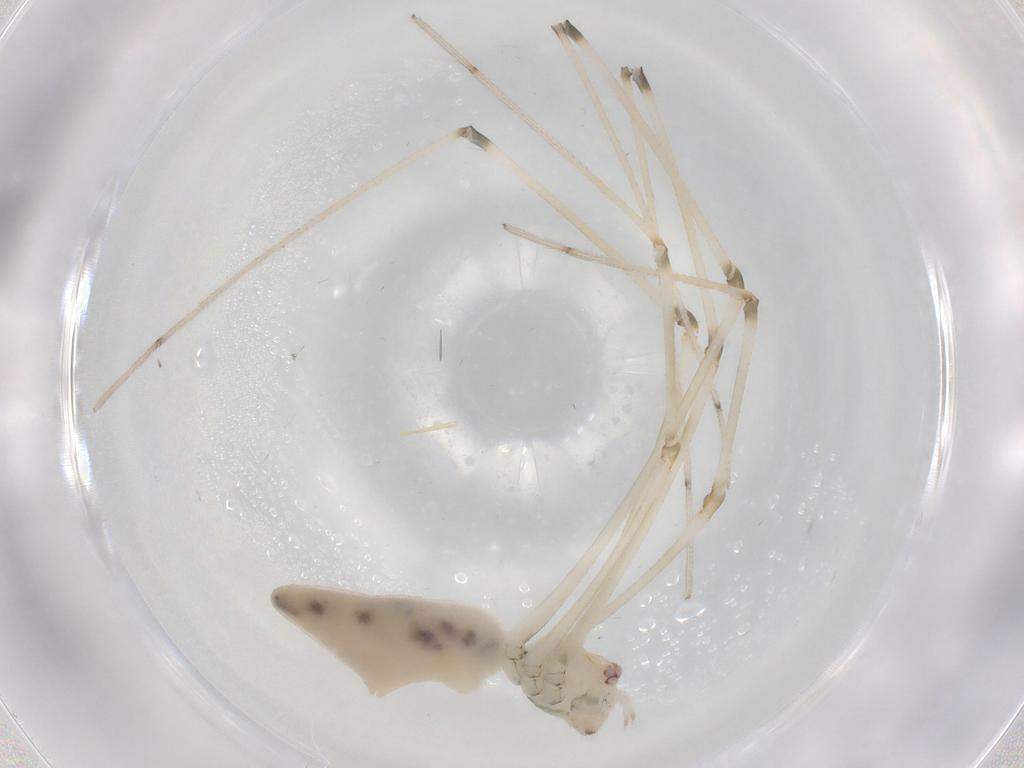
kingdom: Animalia
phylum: Arthropoda
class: Arachnida
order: Araneae
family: Pholcidae
